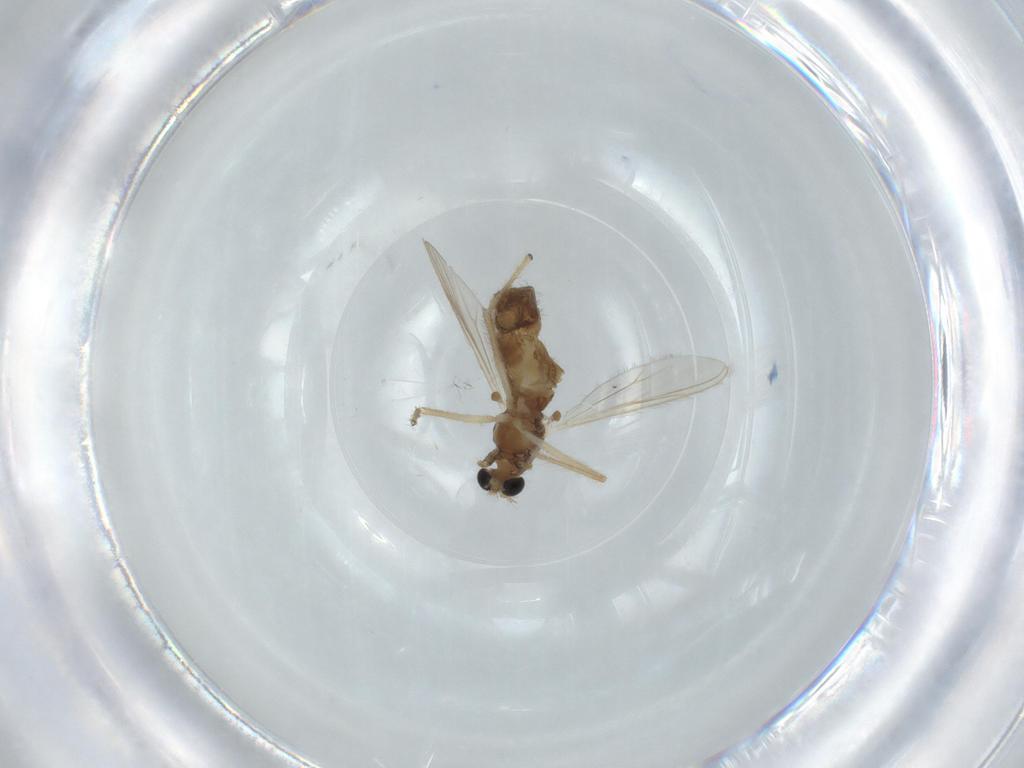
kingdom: Animalia
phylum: Arthropoda
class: Insecta
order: Diptera
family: Chironomidae
